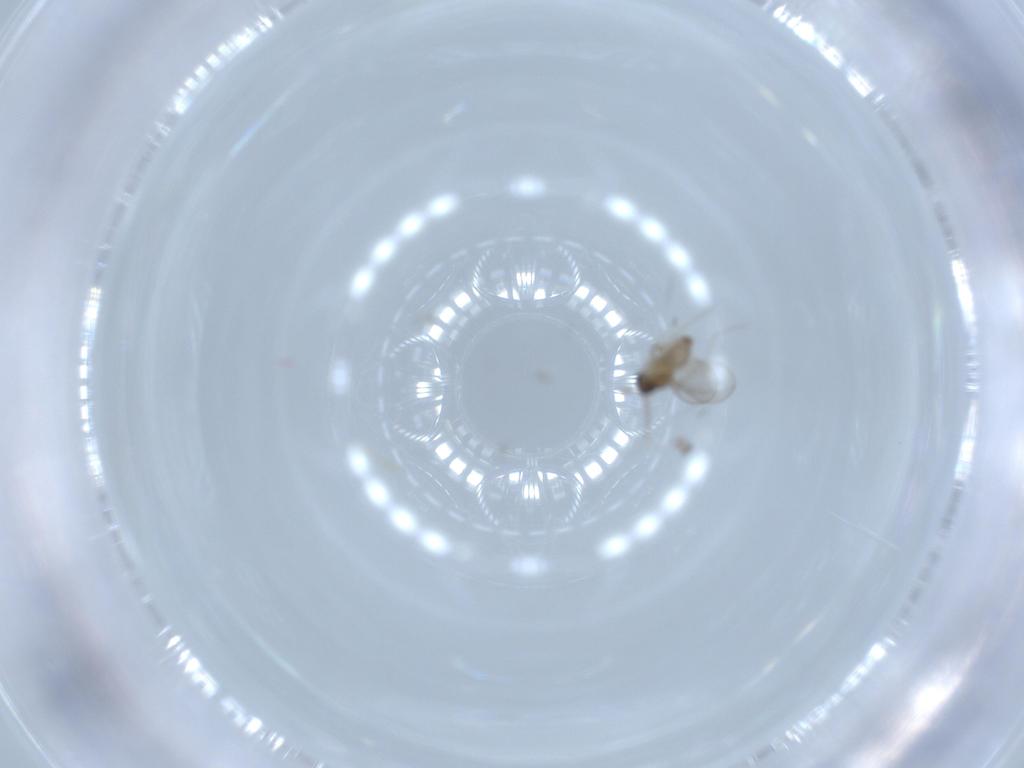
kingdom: Animalia
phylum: Arthropoda
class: Insecta
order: Diptera
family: Cecidomyiidae
